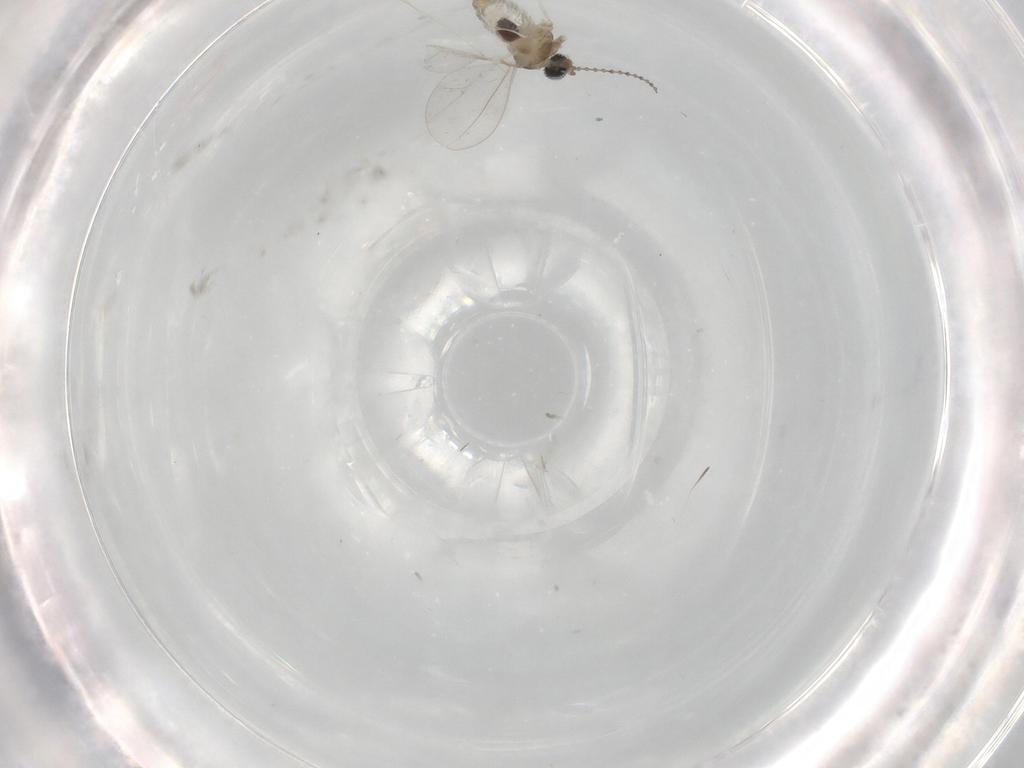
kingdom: Animalia
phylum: Arthropoda
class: Insecta
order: Diptera
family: Cecidomyiidae
